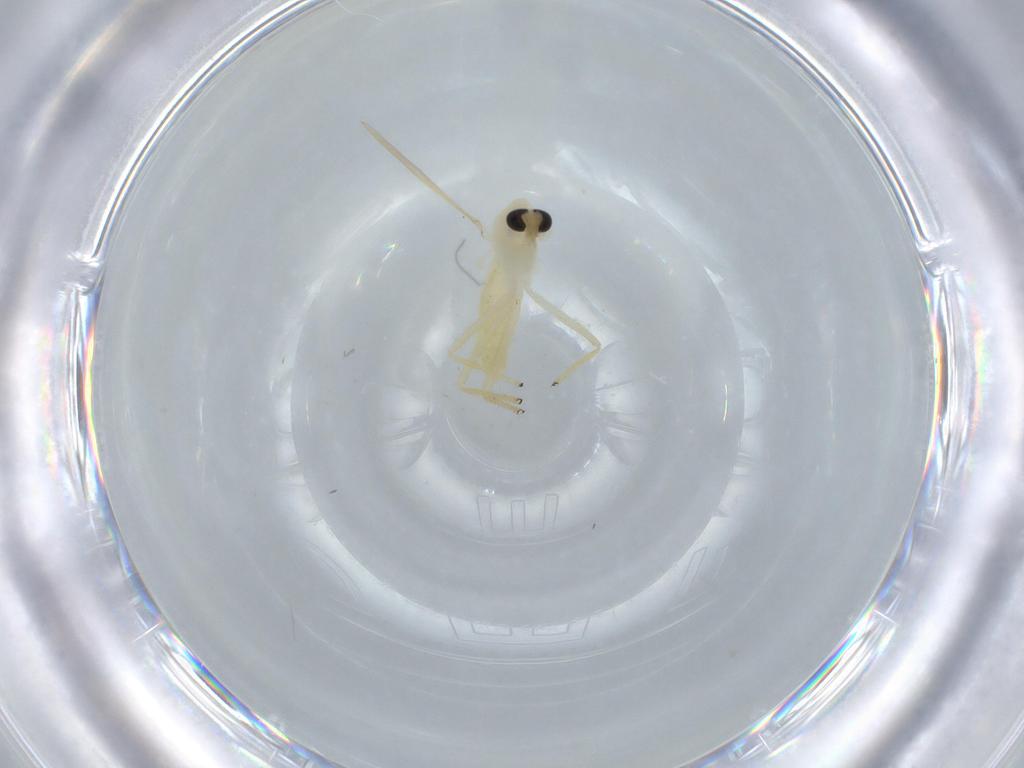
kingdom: Animalia
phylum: Arthropoda
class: Insecta
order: Diptera
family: Chironomidae
